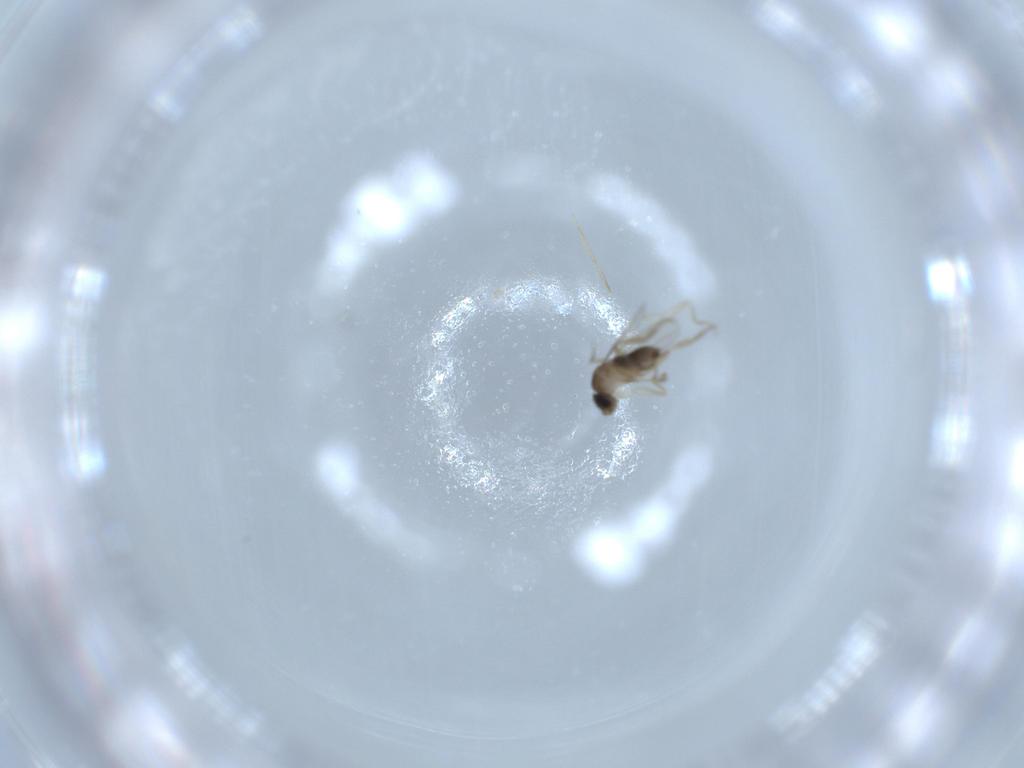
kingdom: Animalia
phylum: Arthropoda
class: Insecta
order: Diptera
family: Phoridae
